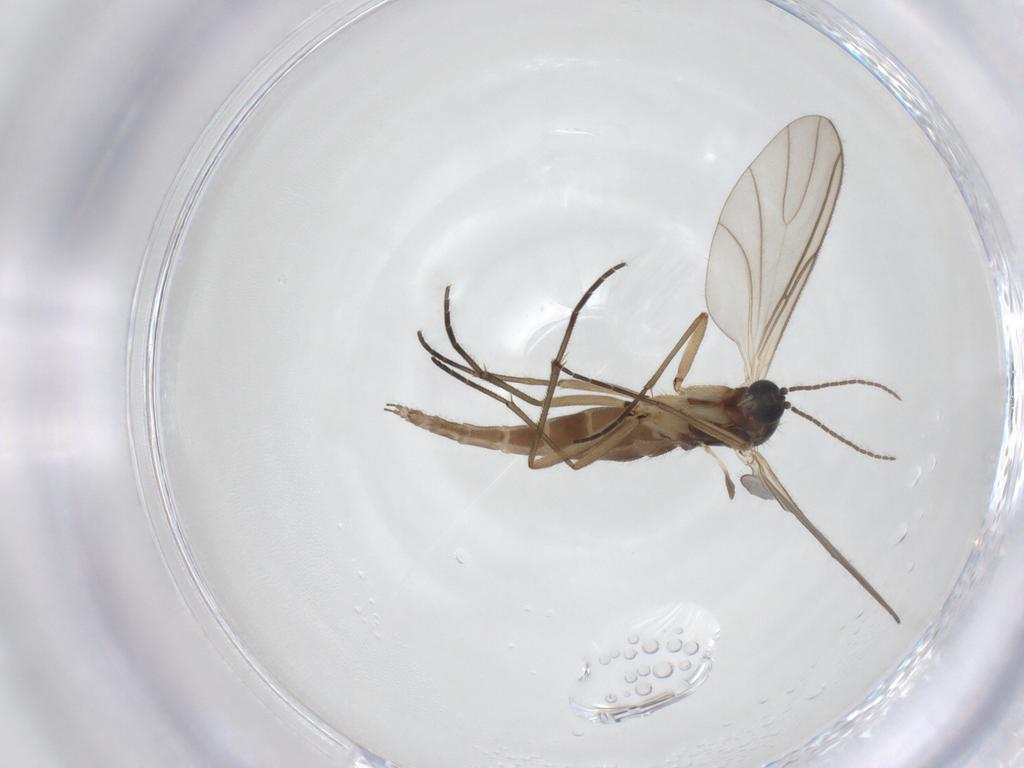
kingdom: Animalia
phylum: Arthropoda
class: Insecta
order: Diptera
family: Sciaridae
